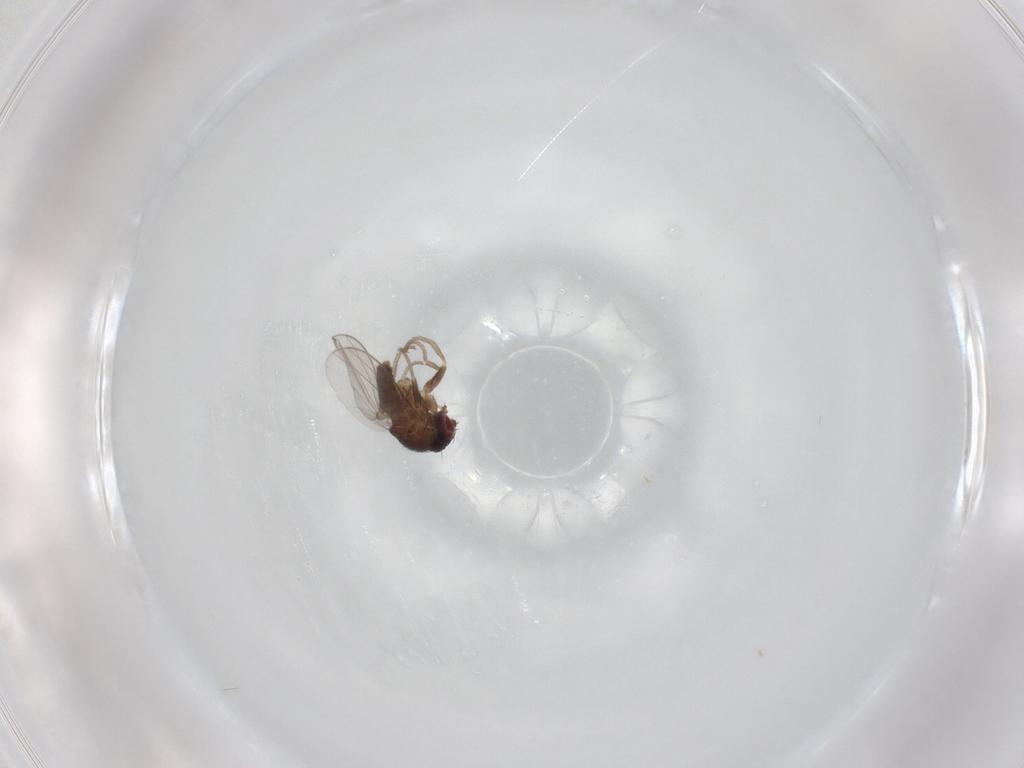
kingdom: Animalia
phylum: Arthropoda
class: Insecta
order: Diptera
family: Milichiidae
